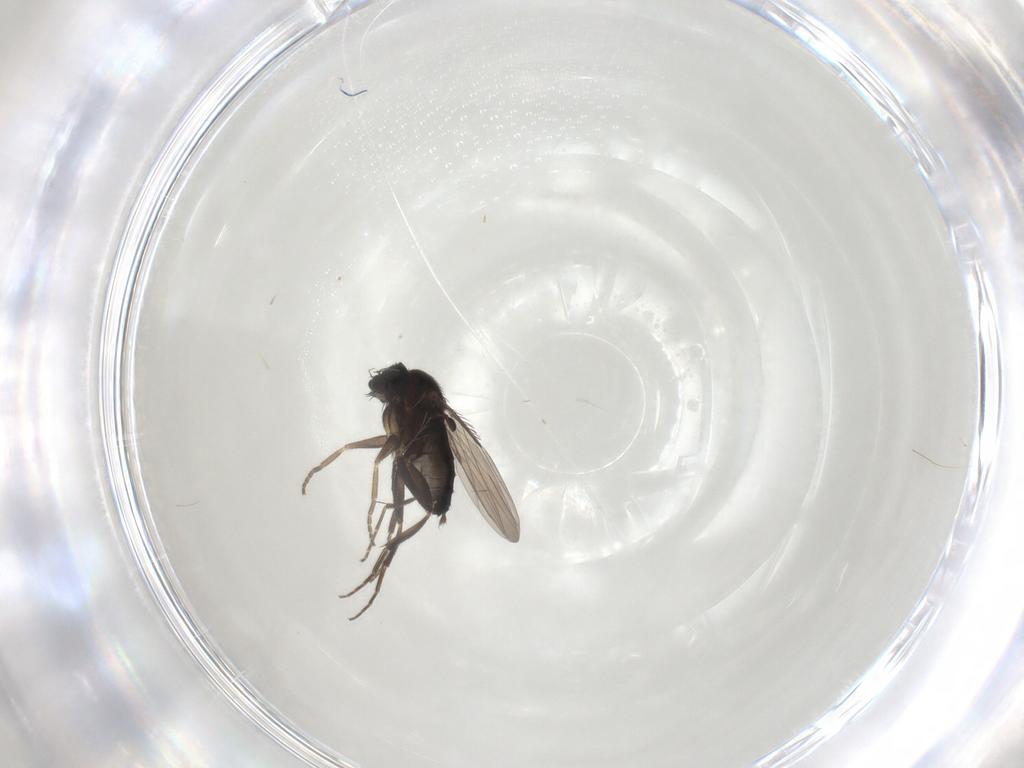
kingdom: Animalia
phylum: Arthropoda
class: Insecta
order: Diptera
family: Phoridae
